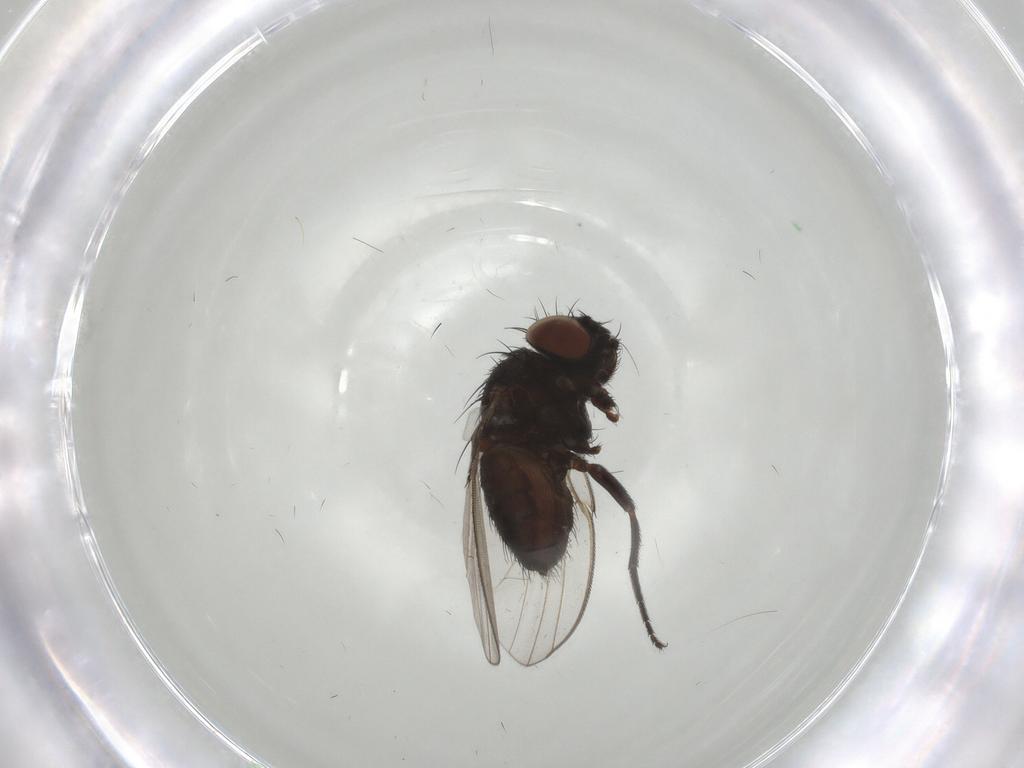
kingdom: Animalia
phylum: Arthropoda
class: Insecta
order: Diptera
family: Milichiidae
